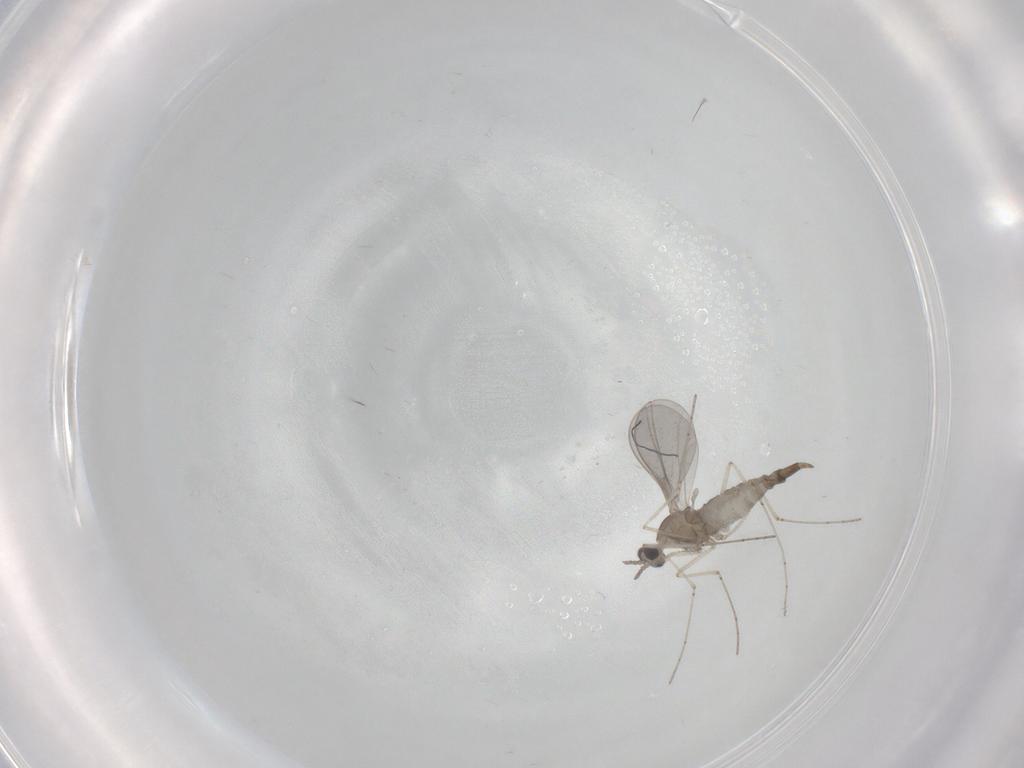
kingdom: Animalia
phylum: Arthropoda
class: Insecta
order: Diptera
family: Cecidomyiidae
